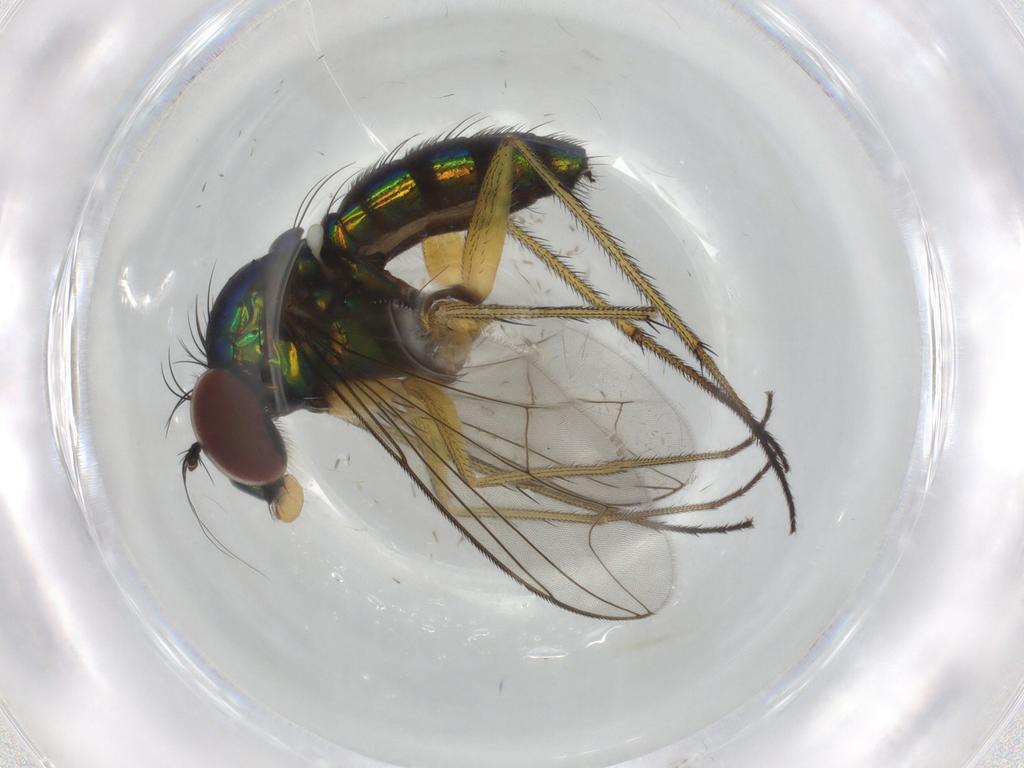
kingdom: Animalia
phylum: Arthropoda
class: Insecta
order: Diptera
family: Dolichopodidae
